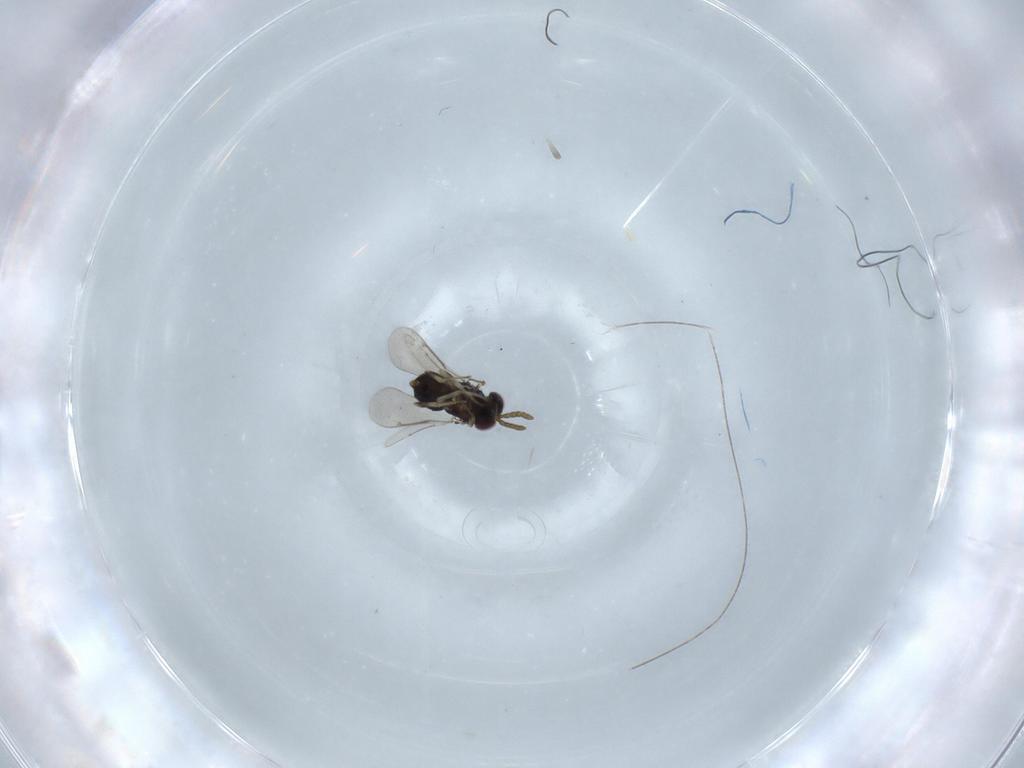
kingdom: Animalia
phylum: Arthropoda
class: Insecta
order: Hymenoptera
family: Aphelinidae
